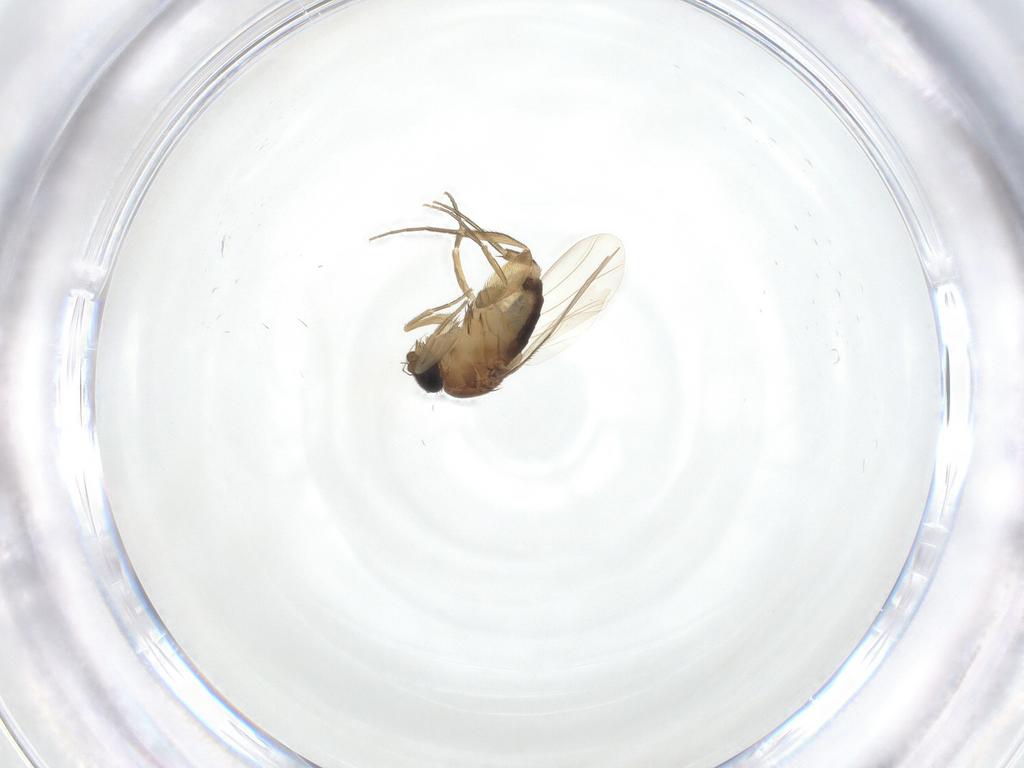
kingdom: Animalia
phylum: Arthropoda
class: Insecta
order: Diptera
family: Phoridae
